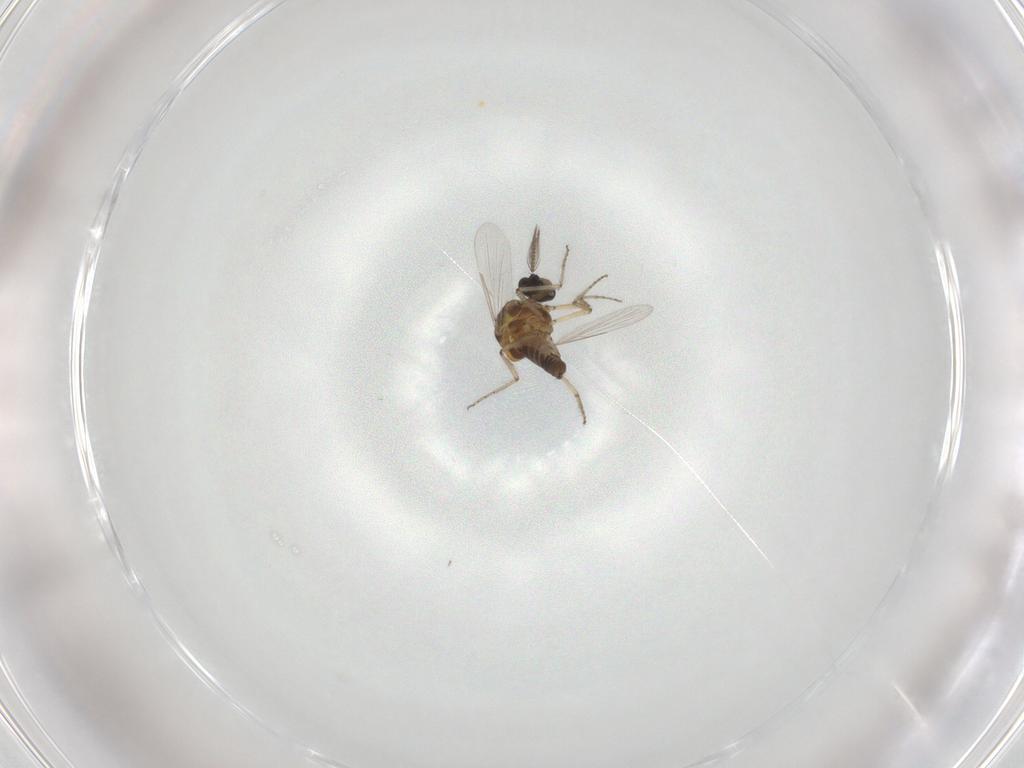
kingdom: Animalia
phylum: Arthropoda
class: Insecta
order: Diptera
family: Ceratopogonidae
